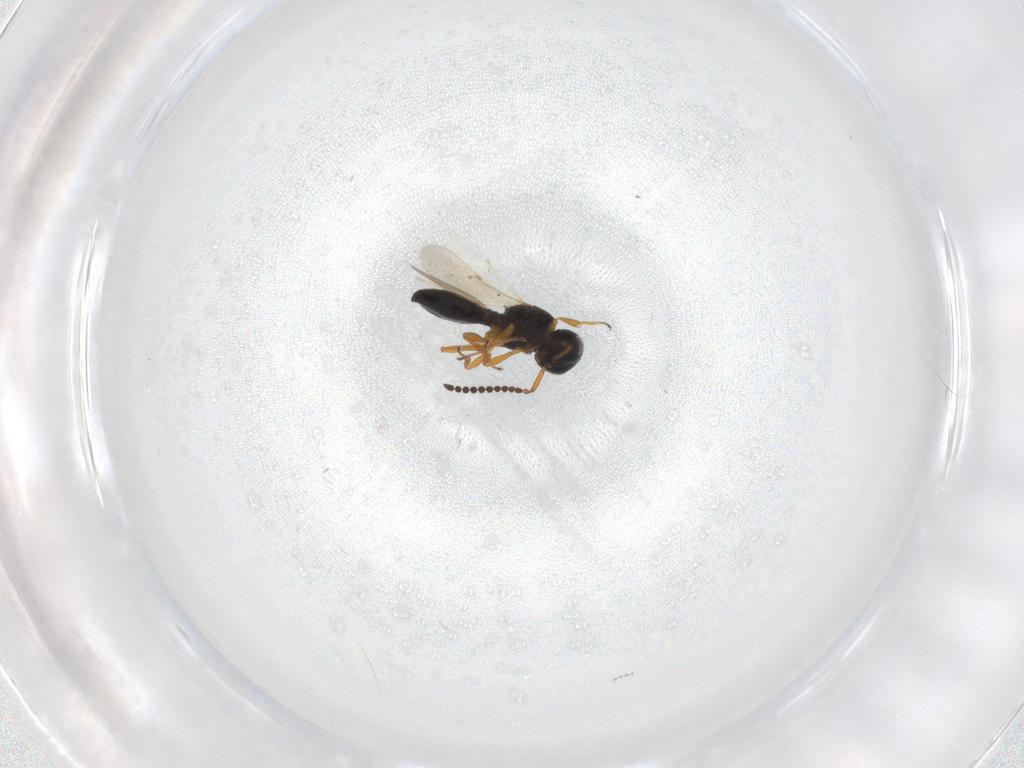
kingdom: Animalia
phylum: Arthropoda
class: Insecta
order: Hymenoptera
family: Scelionidae
